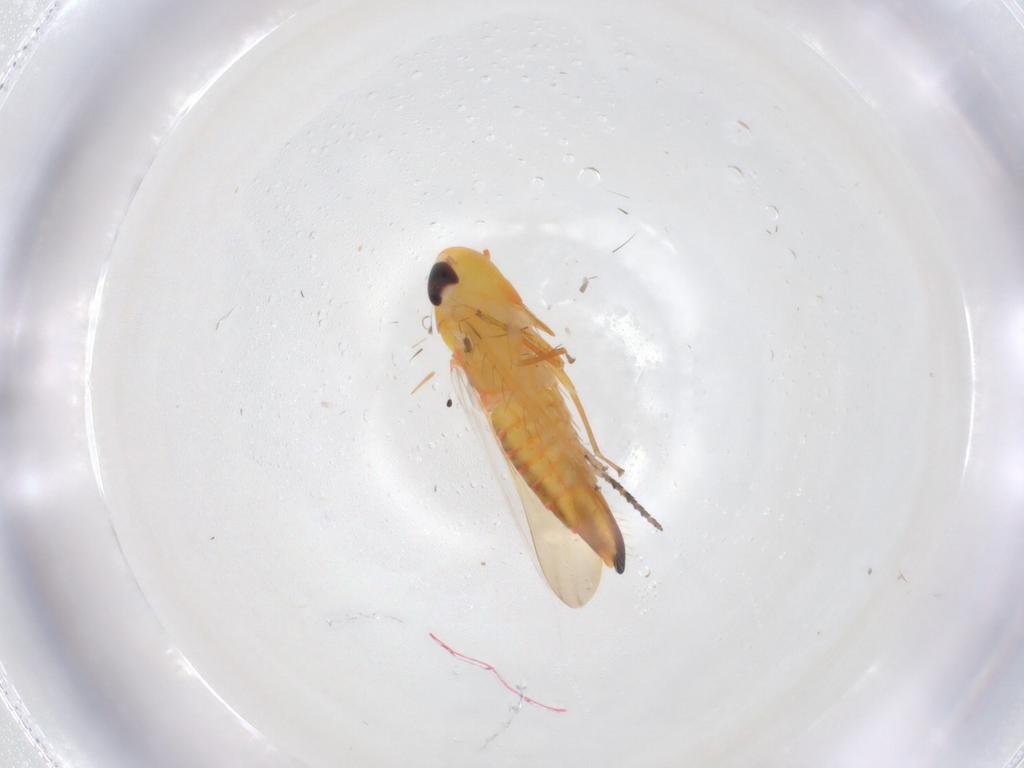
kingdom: Animalia
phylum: Arthropoda
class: Insecta
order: Hemiptera
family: Cicadellidae
